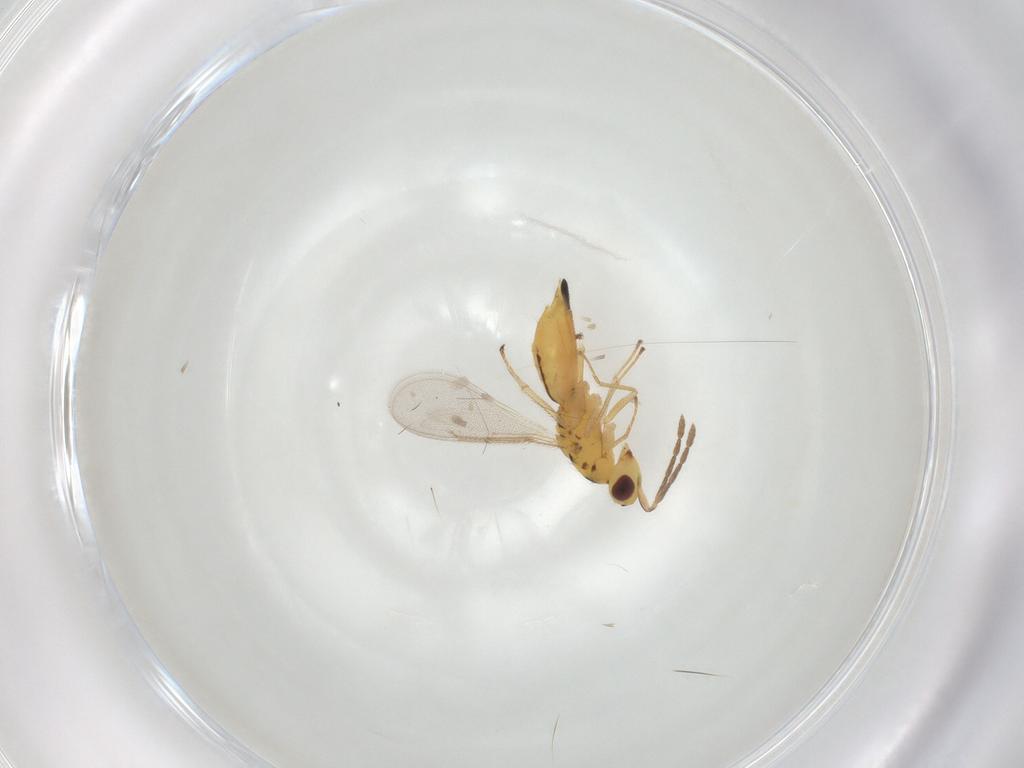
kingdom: Animalia
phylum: Arthropoda
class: Insecta
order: Hymenoptera
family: Eulophidae
